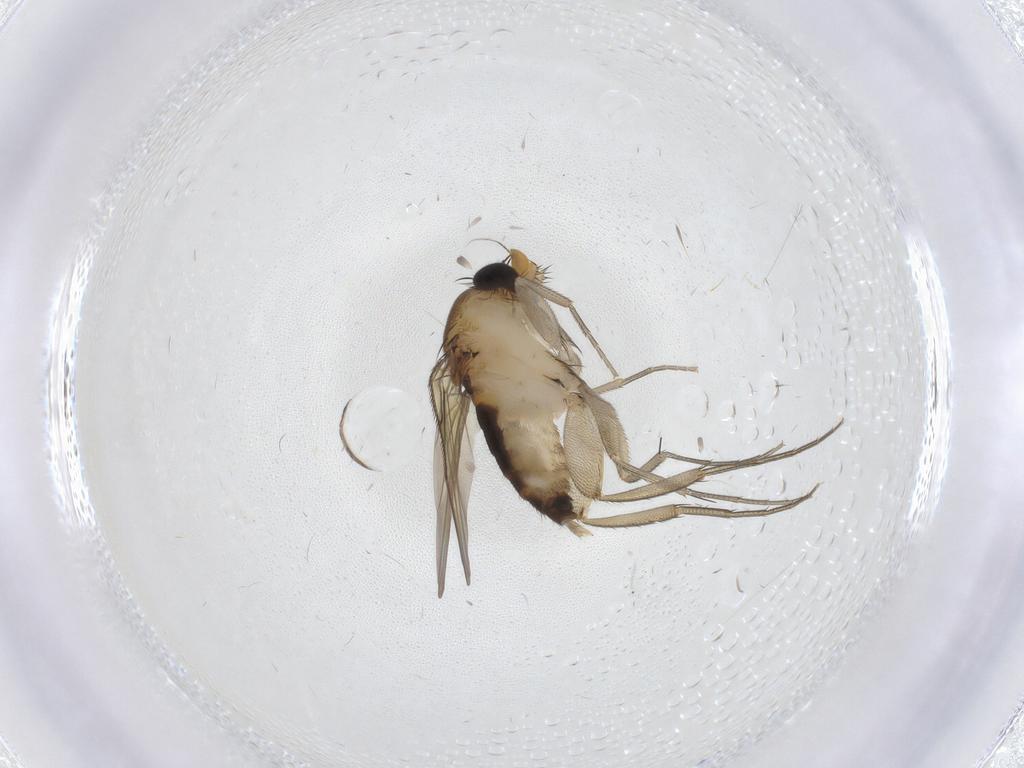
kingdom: Animalia
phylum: Arthropoda
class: Insecta
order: Diptera
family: Phoridae
